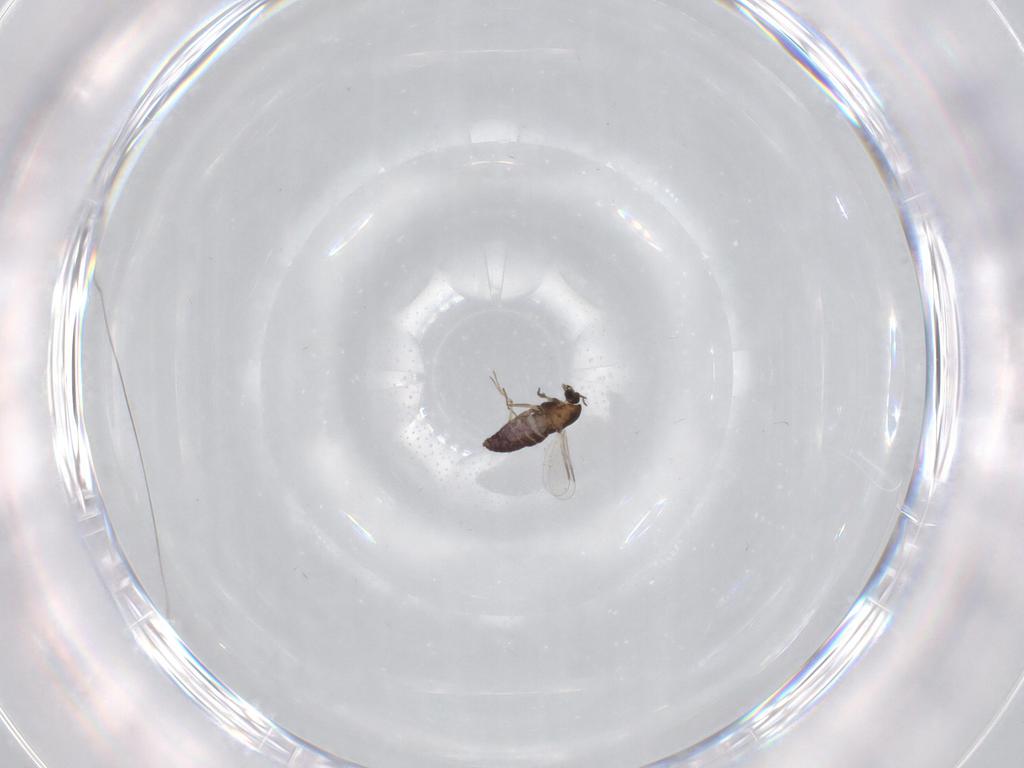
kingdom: Animalia
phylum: Arthropoda
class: Insecta
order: Diptera
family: Chironomidae
